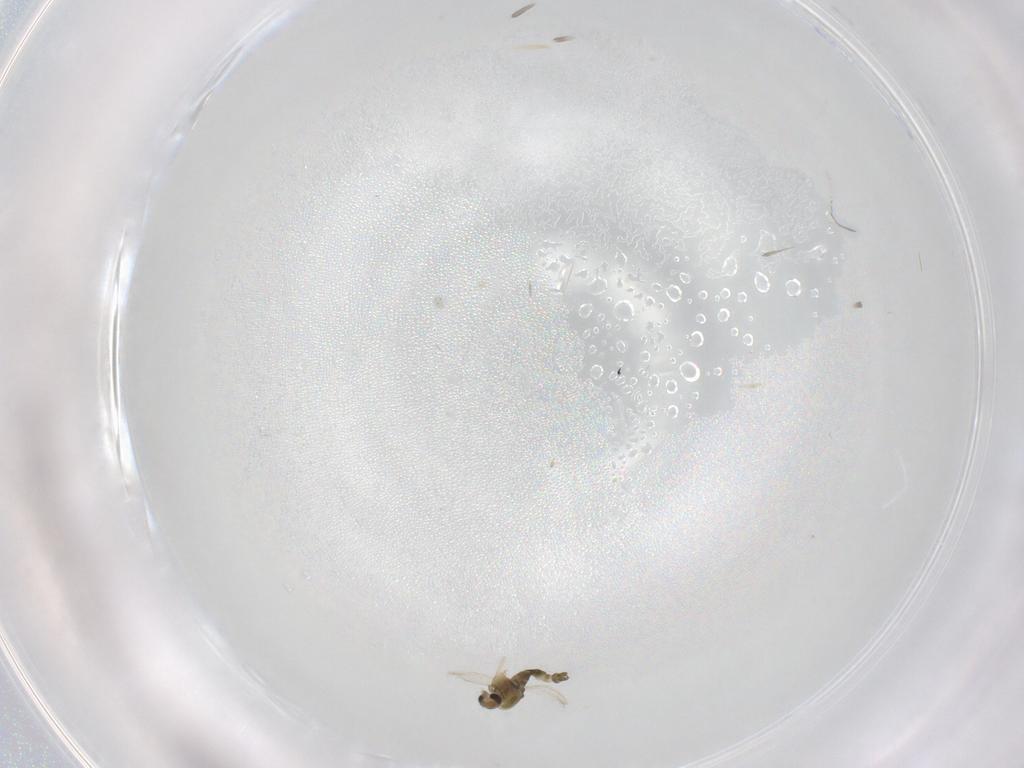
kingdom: Animalia
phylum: Arthropoda
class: Insecta
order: Diptera
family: Chironomidae
